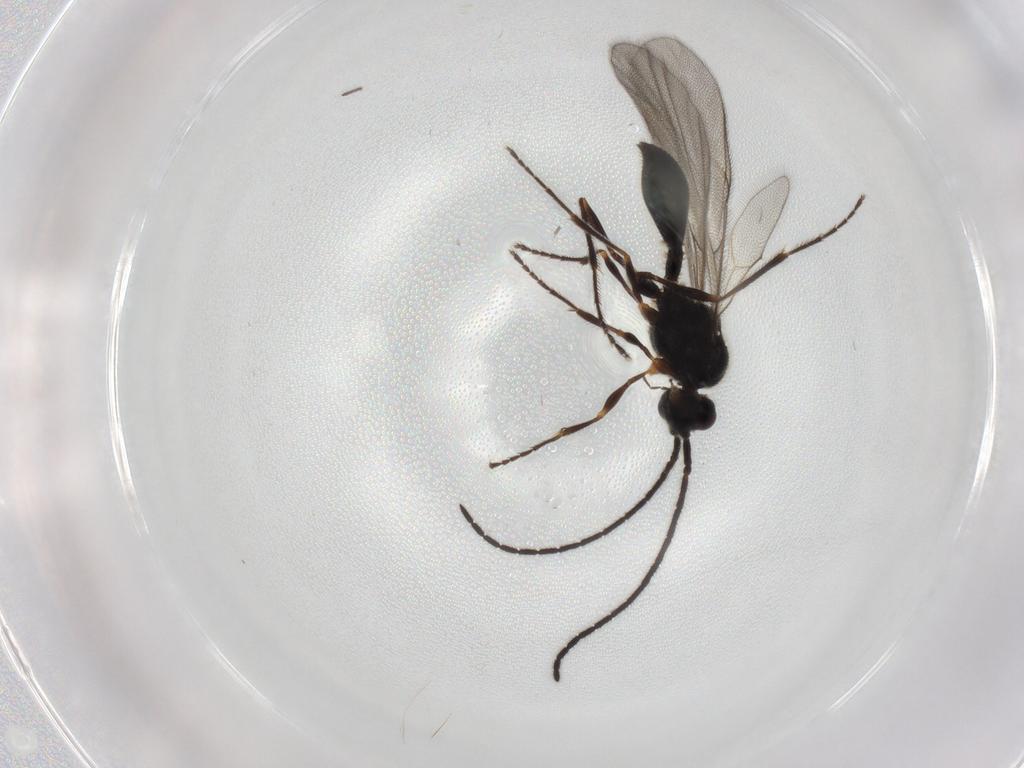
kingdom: Animalia
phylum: Arthropoda
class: Insecta
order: Hymenoptera
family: Diapriidae
